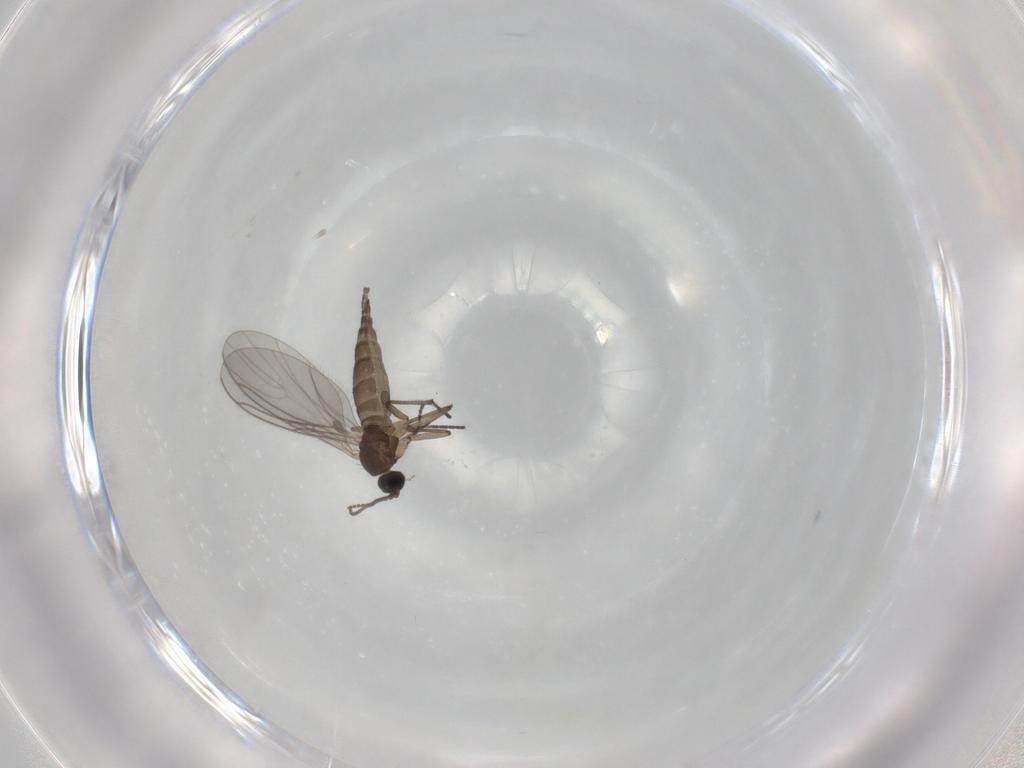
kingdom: Animalia
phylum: Arthropoda
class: Insecta
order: Diptera
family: Sciaridae
